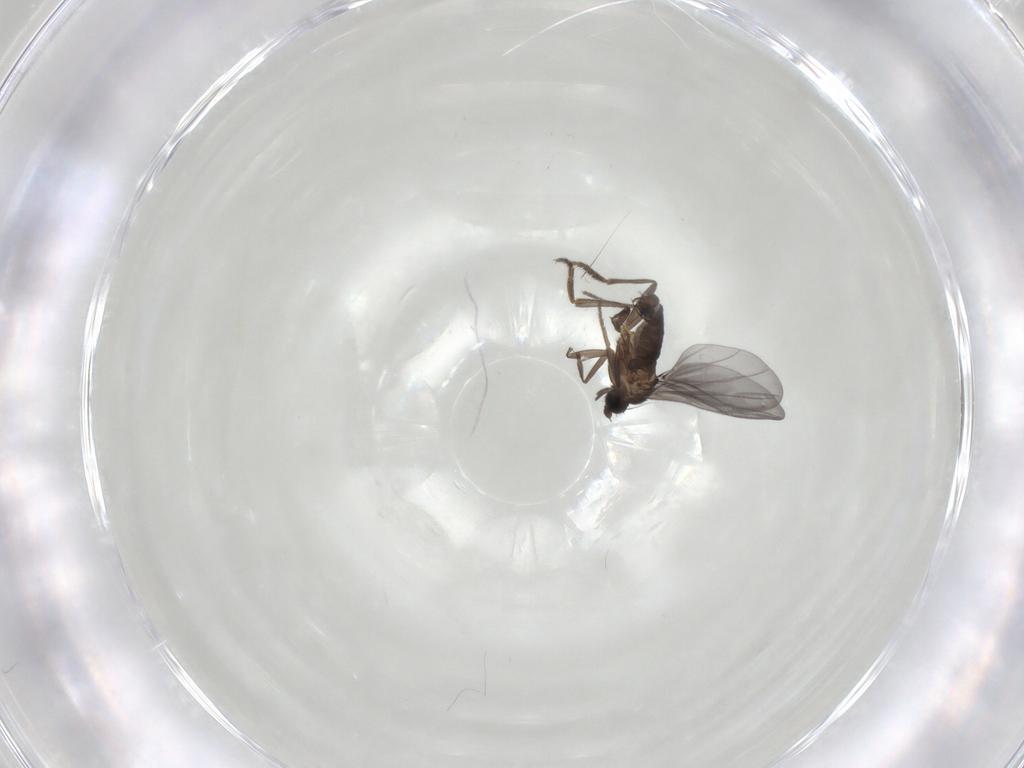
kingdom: Animalia
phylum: Arthropoda
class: Insecta
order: Diptera
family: Phoridae
